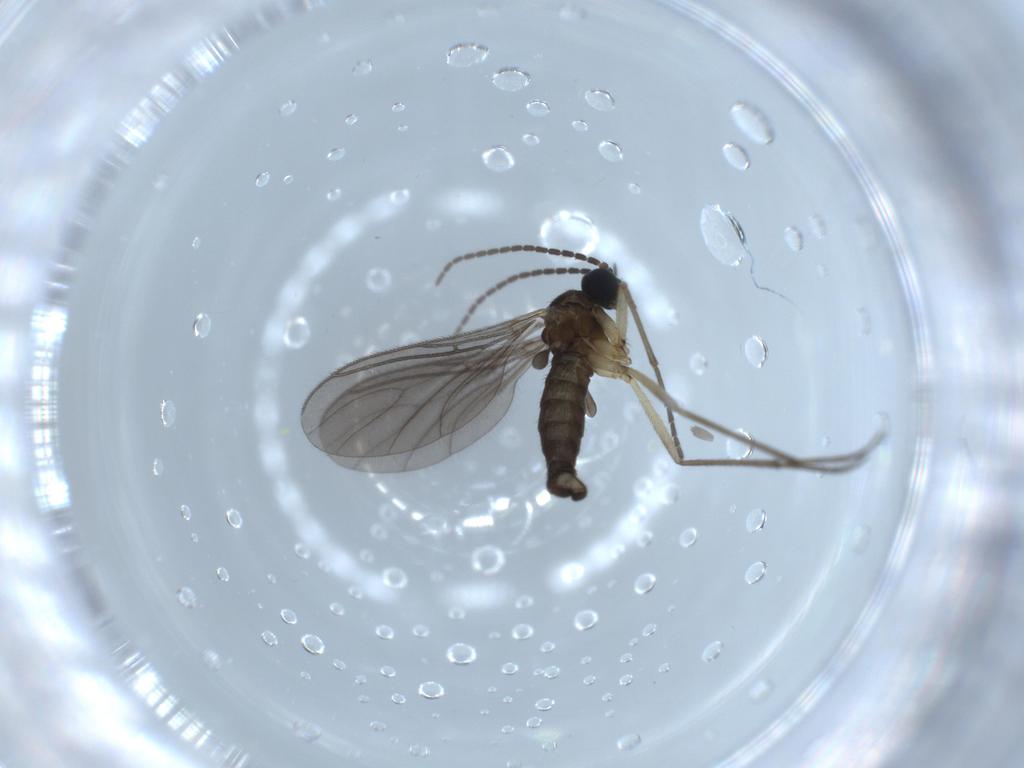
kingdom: Animalia
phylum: Arthropoda
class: Insecta
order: Diptera
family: Sciaridae
